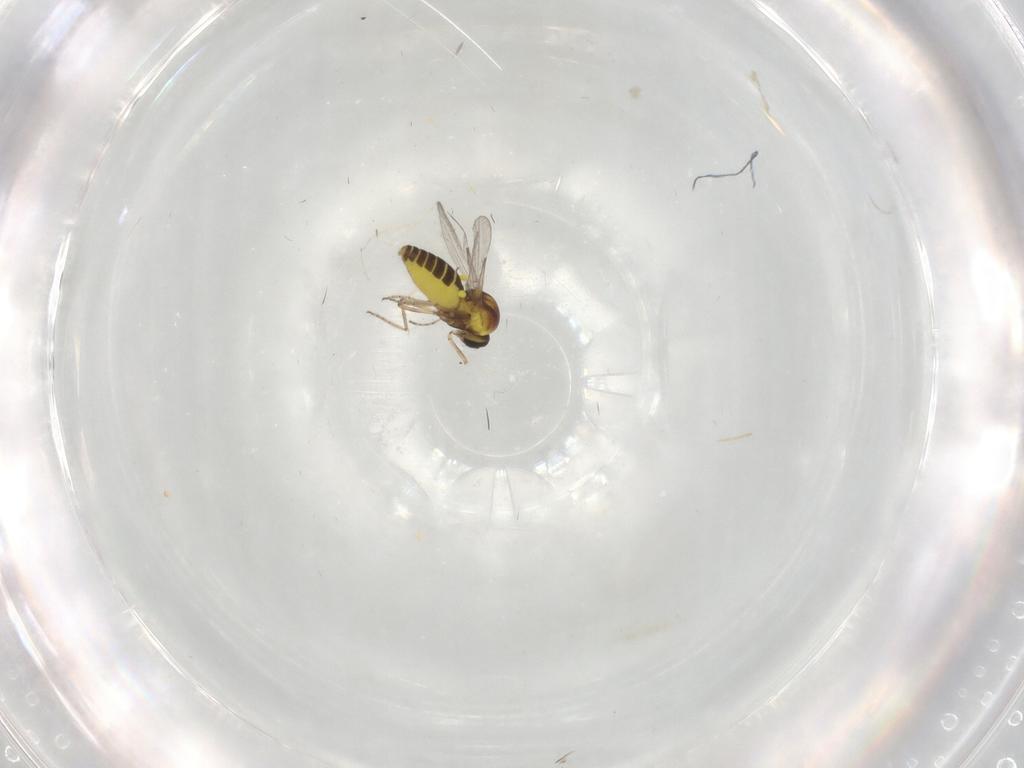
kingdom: Animalia
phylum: Arthropoda
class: Insecta
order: Diptera
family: Ceratopogonidae
